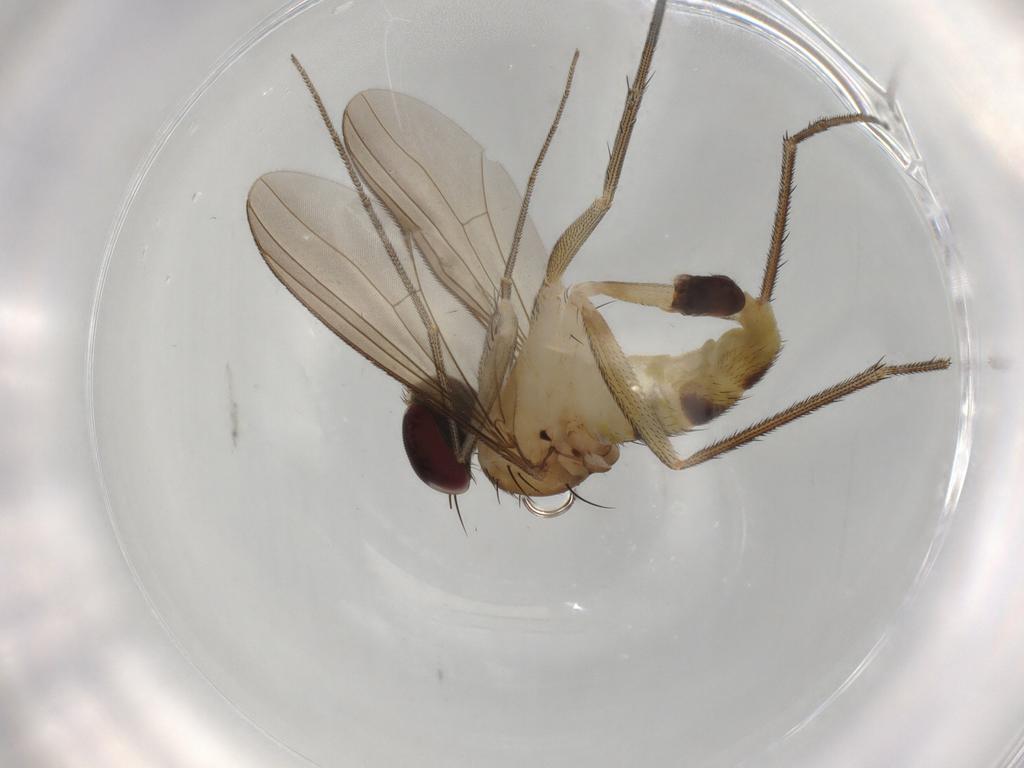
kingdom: Animalia
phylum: Arthropoda
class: Insecta
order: Diptera
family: Dolichopodidae
